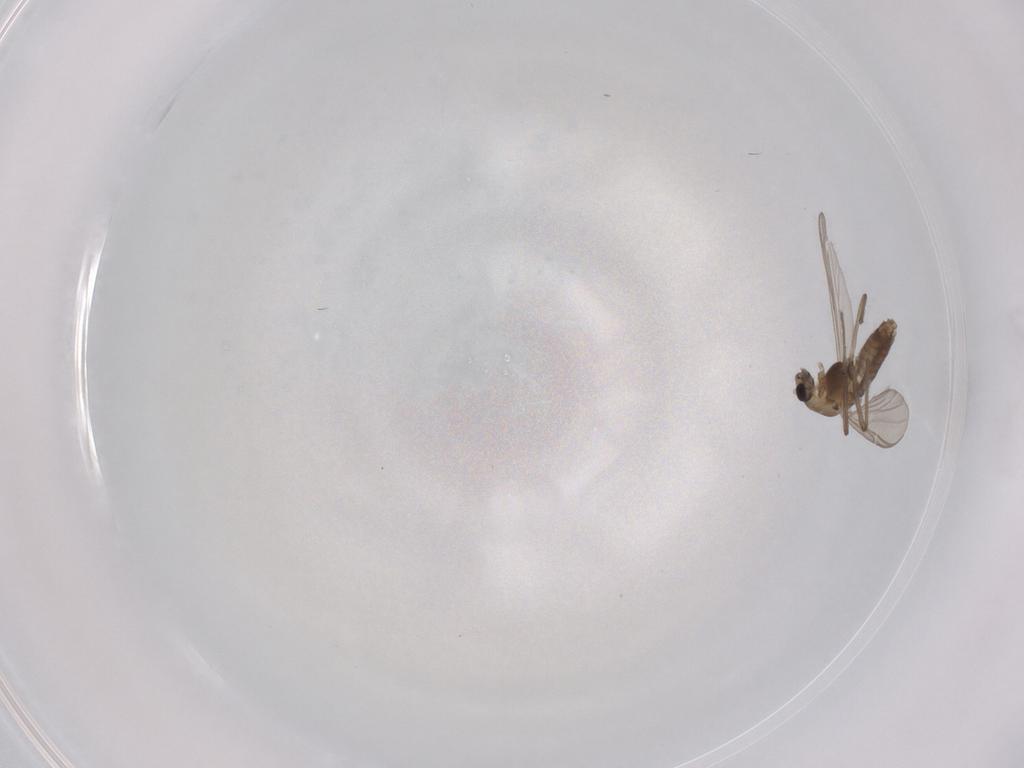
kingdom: Animalia
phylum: Arthropoda
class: Insecta
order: Diptera
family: Chironomidae
